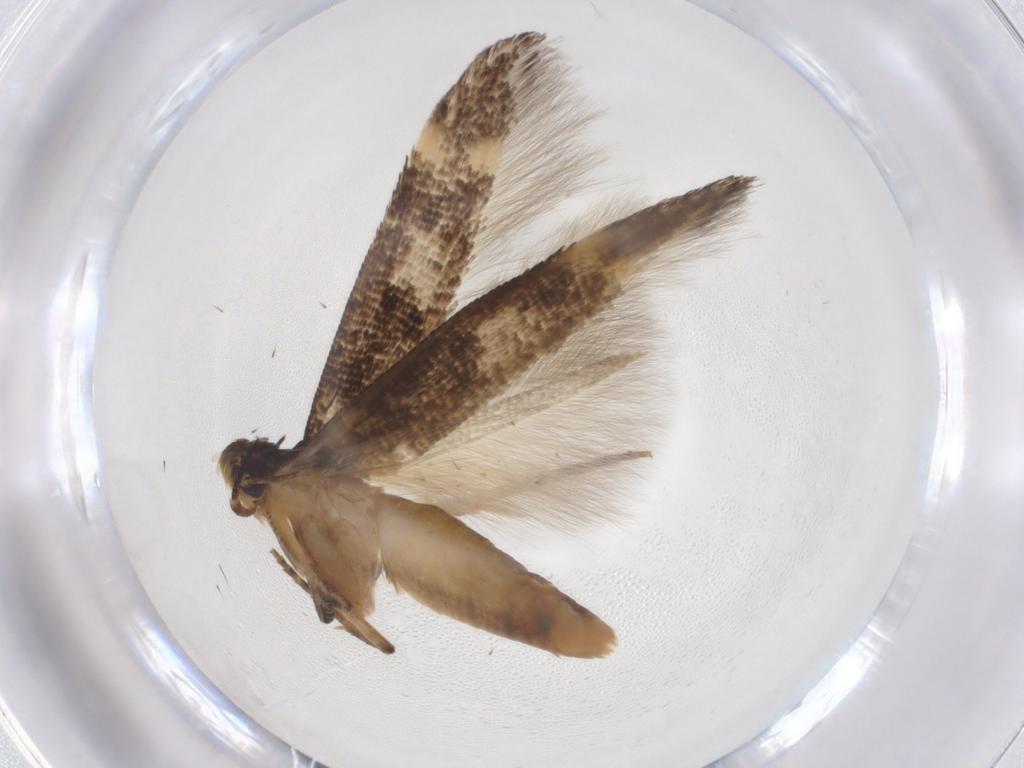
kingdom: Animalia
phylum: Arthropoda
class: Insecta
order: Lepidoptera
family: Cosmopterigidae
